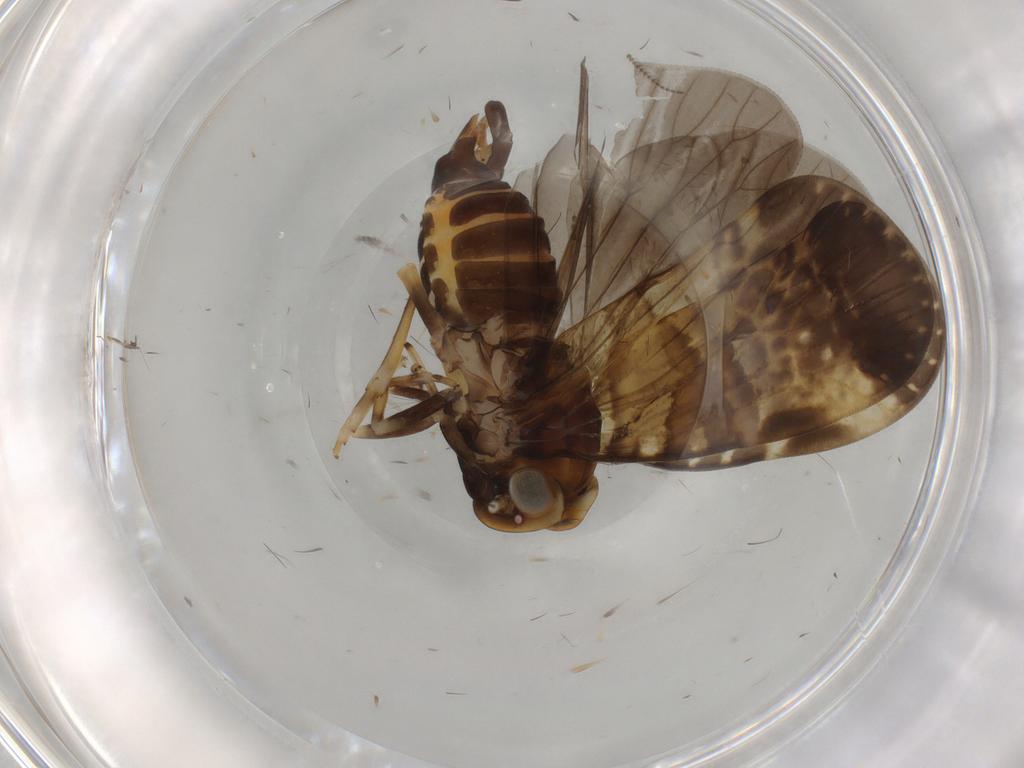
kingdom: Animalia
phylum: Arthropoda
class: Insecta
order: Hemiptera
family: Cixiidae
